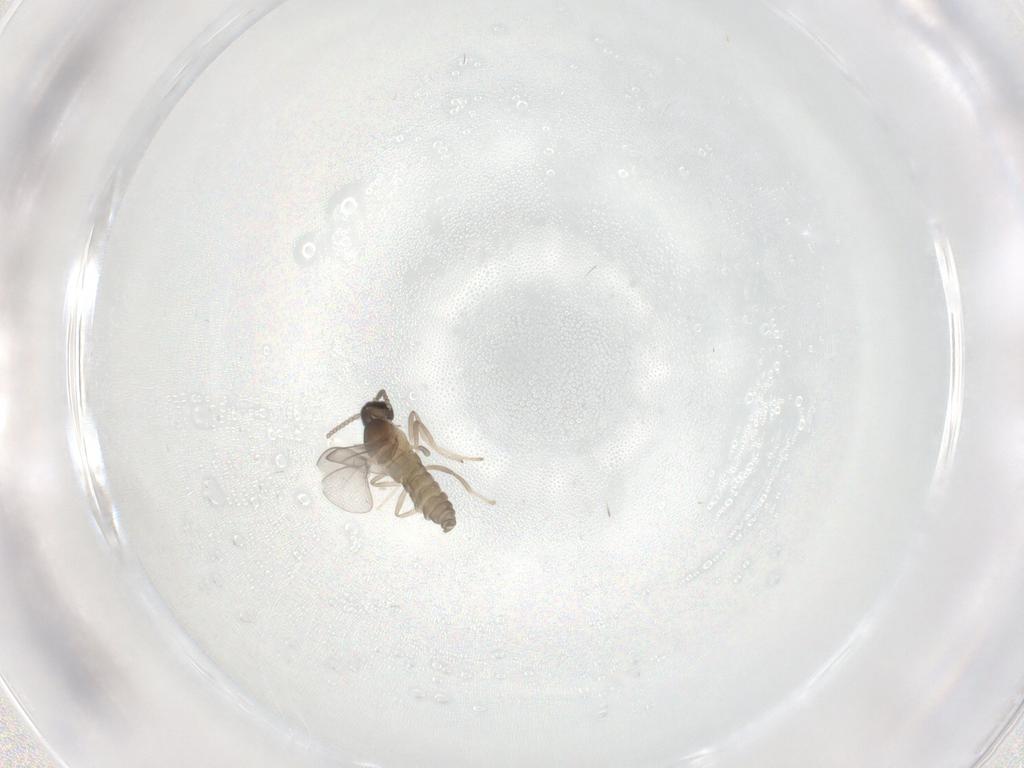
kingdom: Animalia
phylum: Arthropoda
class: Insecta
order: Diptera
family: Cecidomyiidae
